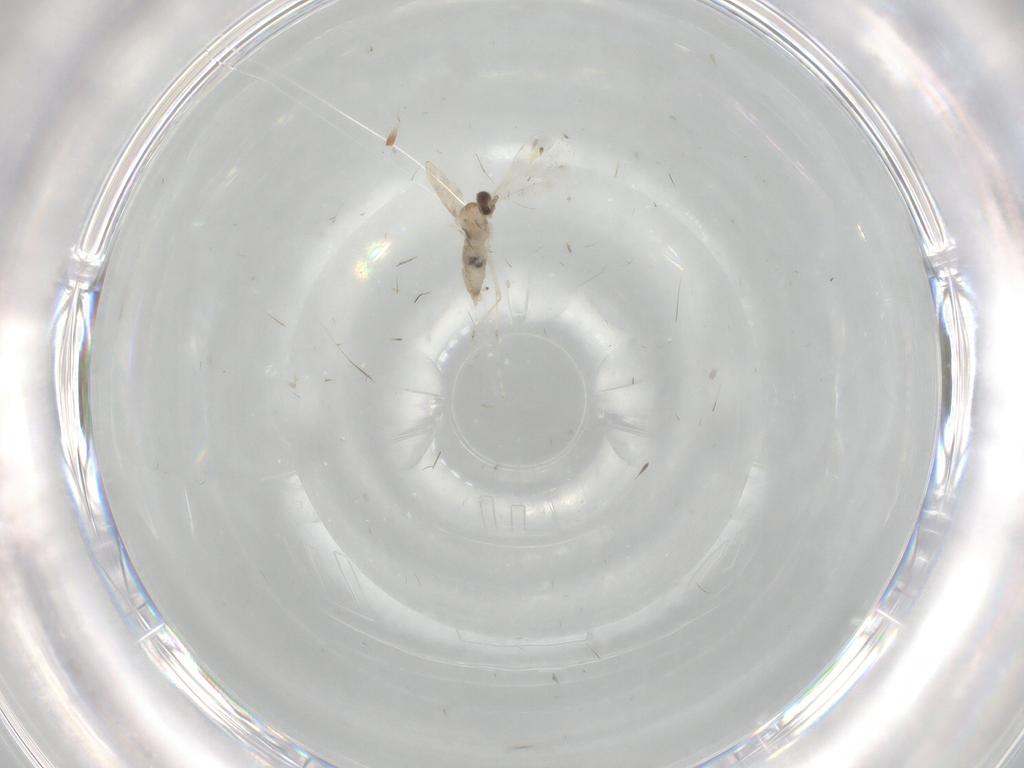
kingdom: Animalia
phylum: Arthropoda
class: Insecta
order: Diptera
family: Cecidomyiidae
